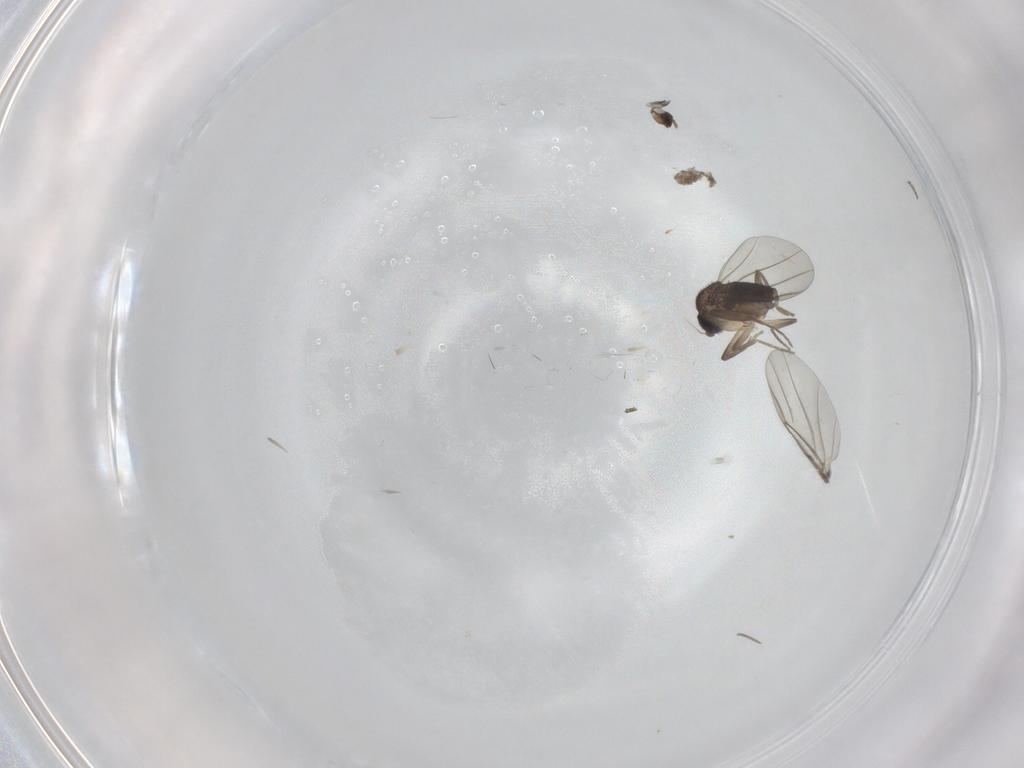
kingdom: Animalia
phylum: Arthropoda
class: Insecta
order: Diptera
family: Phoridae
